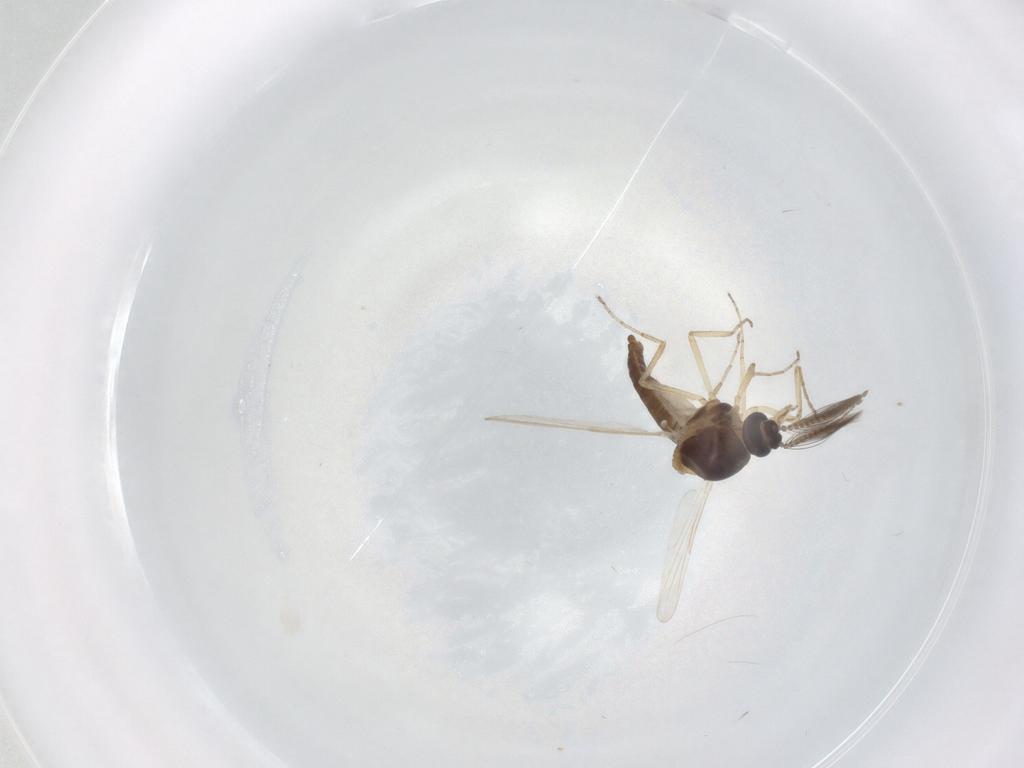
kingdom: Animalia
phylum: Arthropoda
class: Insecta
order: Diptera
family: Ceratopogonidae
